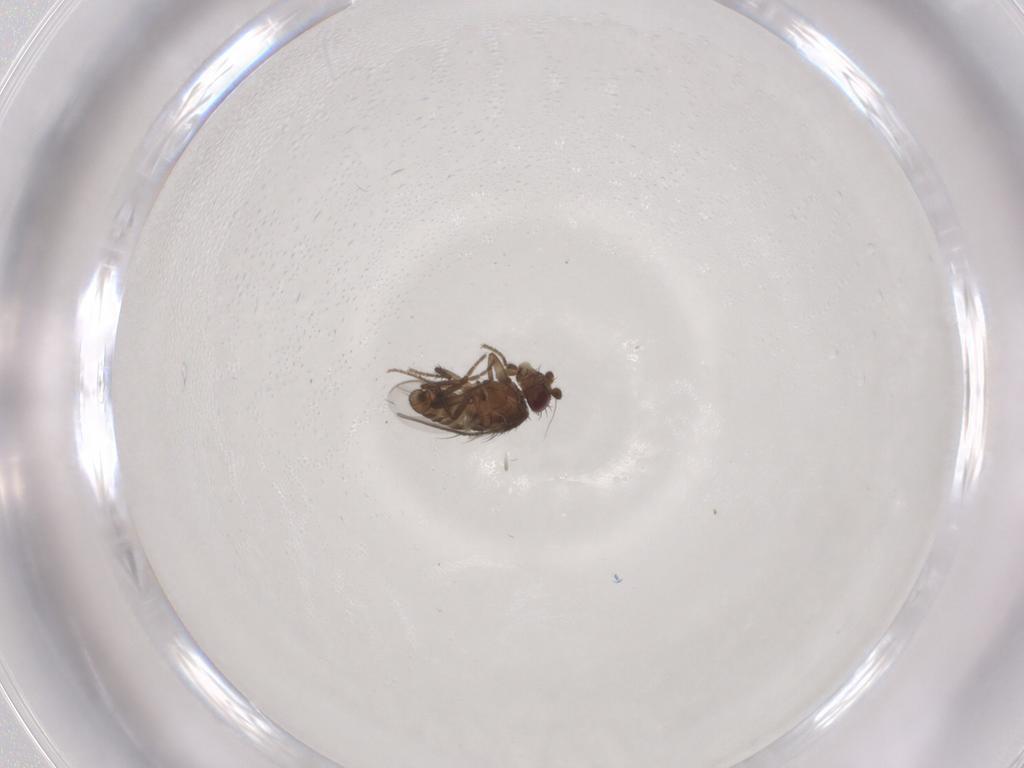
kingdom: Animalia
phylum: Arthropoda
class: Insecta
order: Diptera
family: Sphaeroceridae
